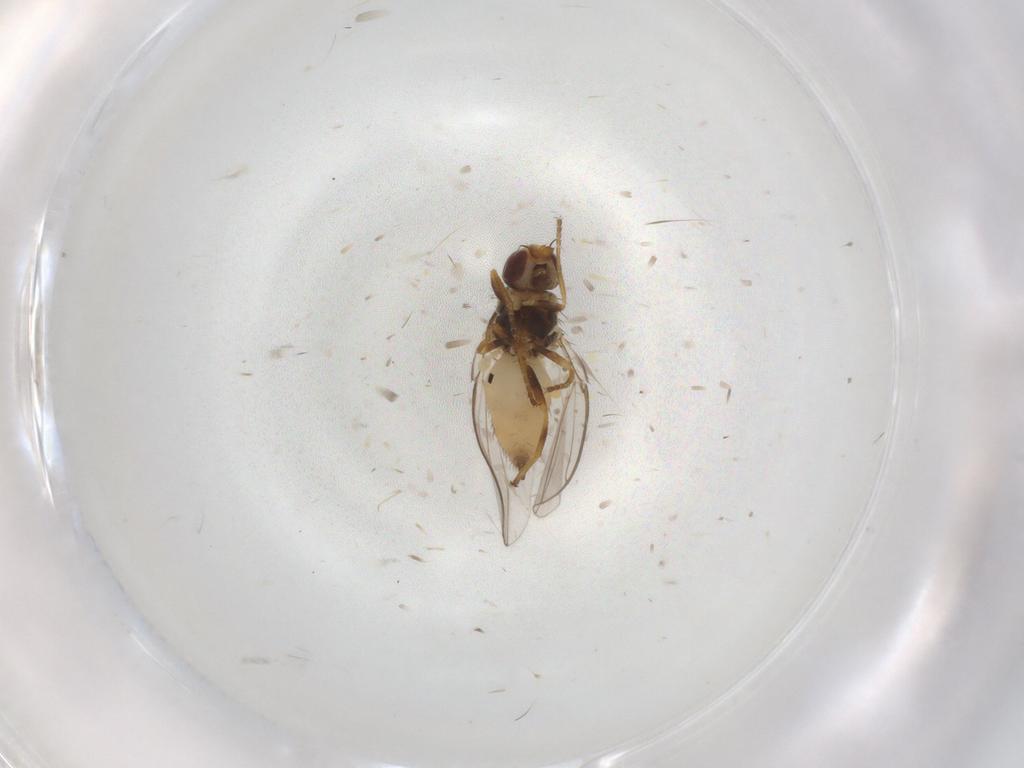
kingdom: Animalia
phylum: Arthropoda
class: Insecta
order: Diptera
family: Chloropidae
